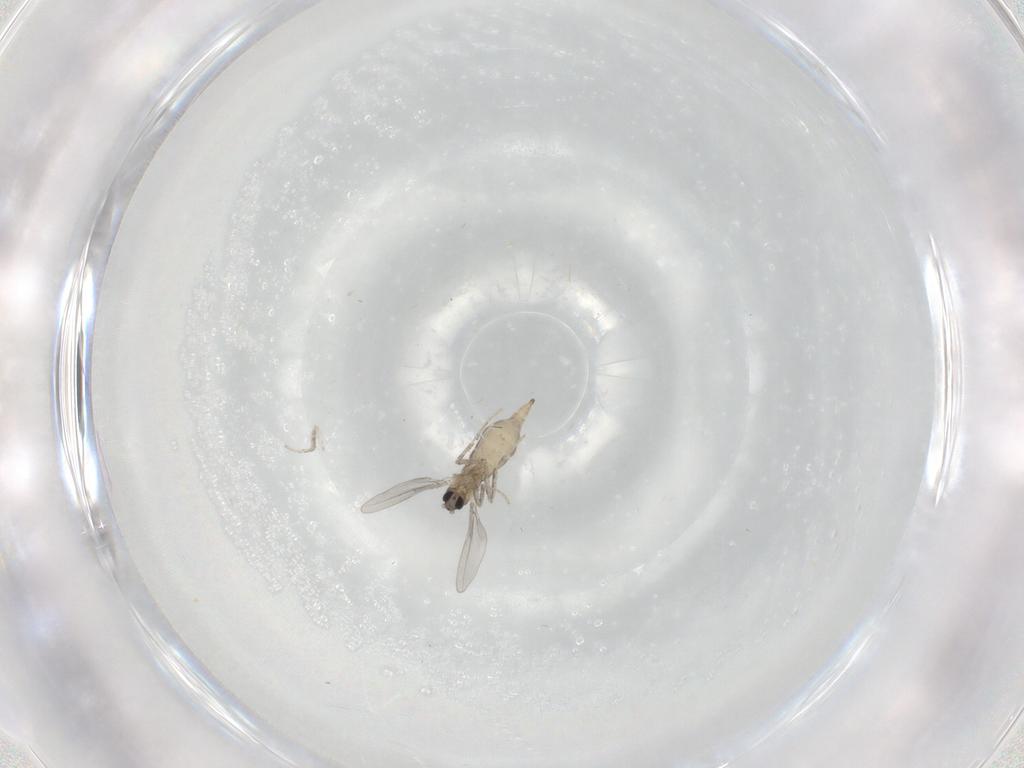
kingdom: Animalia
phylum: Arthropoda
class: Insecta
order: Diptera
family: Cecidomyiidae
